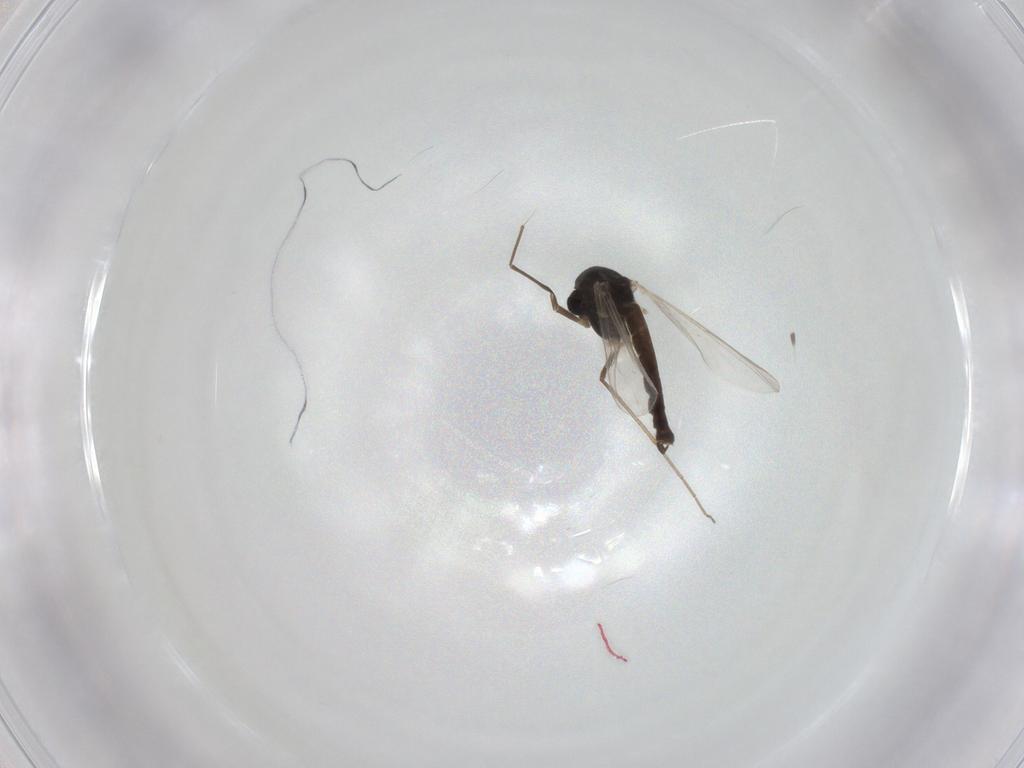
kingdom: Animalia
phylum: Arthropoda
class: Insecta
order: Diptera
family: Chironomidae
